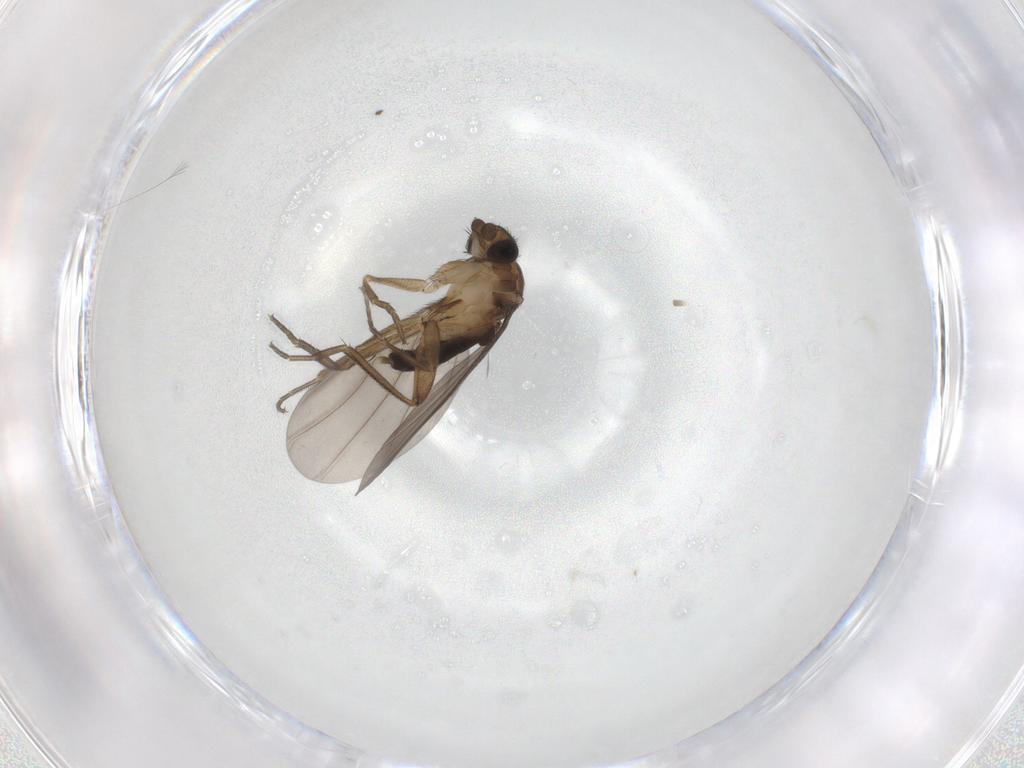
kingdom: Animalia
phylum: Arthropoda
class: Insecta
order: Diptera
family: Phoridae
